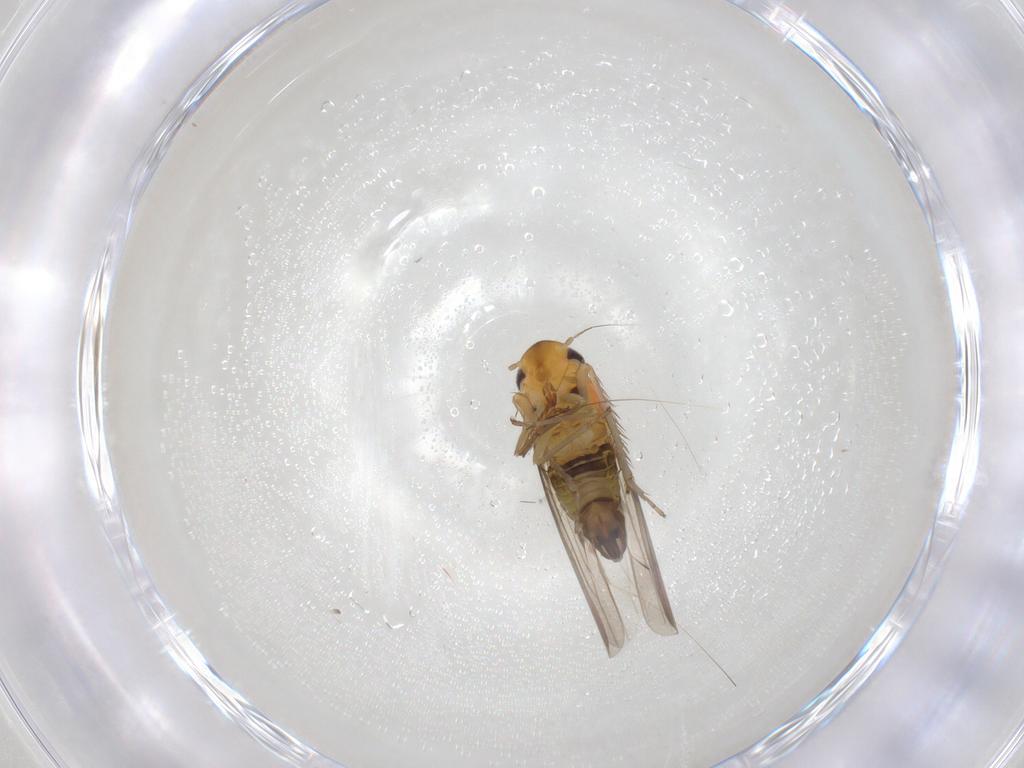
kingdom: Animalia
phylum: Arthropoda
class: Insecta
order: Hemiptera
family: Cicadellidae
